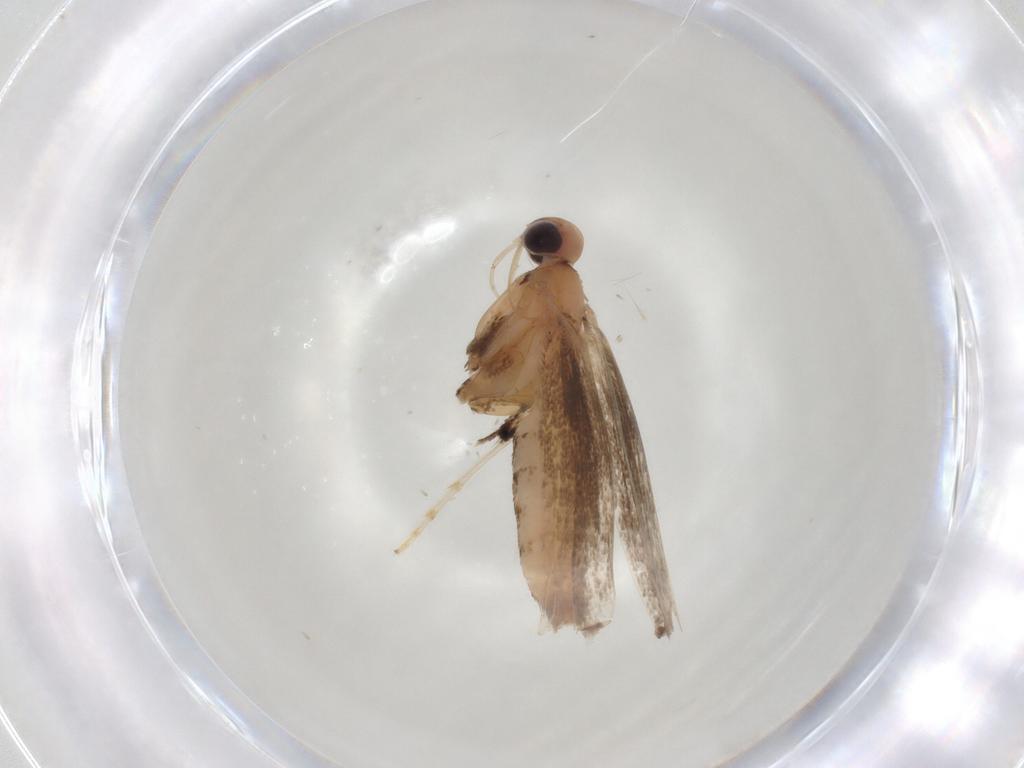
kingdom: Animalia
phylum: Arthropoda
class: Insecta
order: Lepidoptera
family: Gracillariidae
